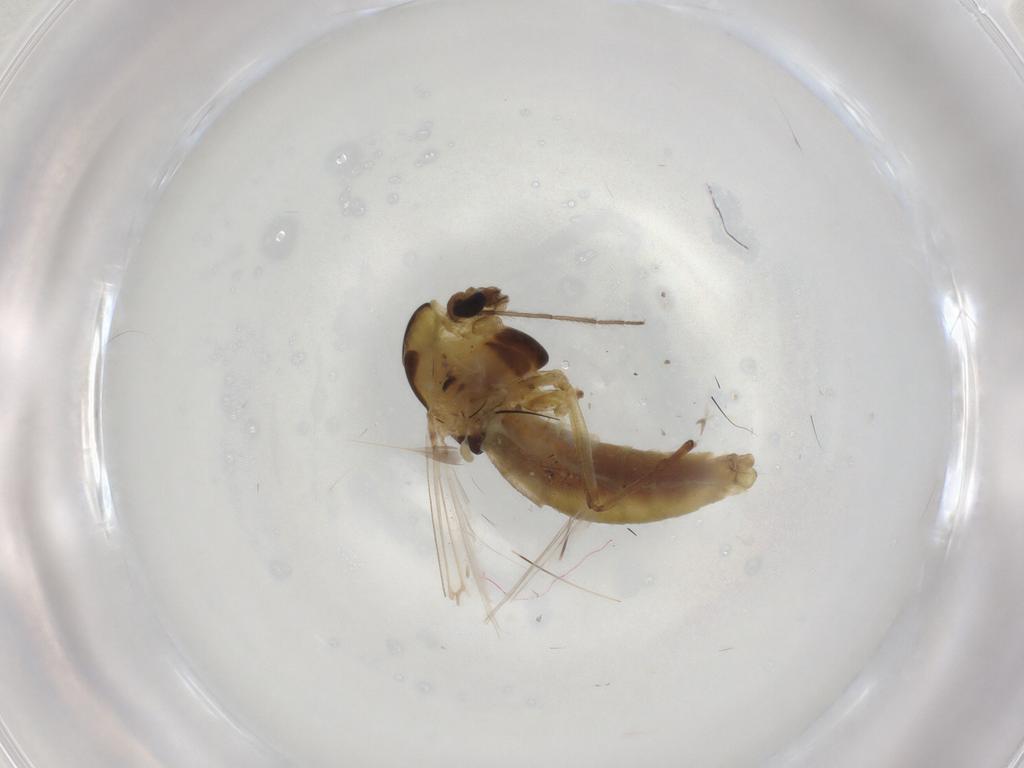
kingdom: Animalia
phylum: Arthropoda
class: Insecta
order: Diptera
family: Chironomidae
